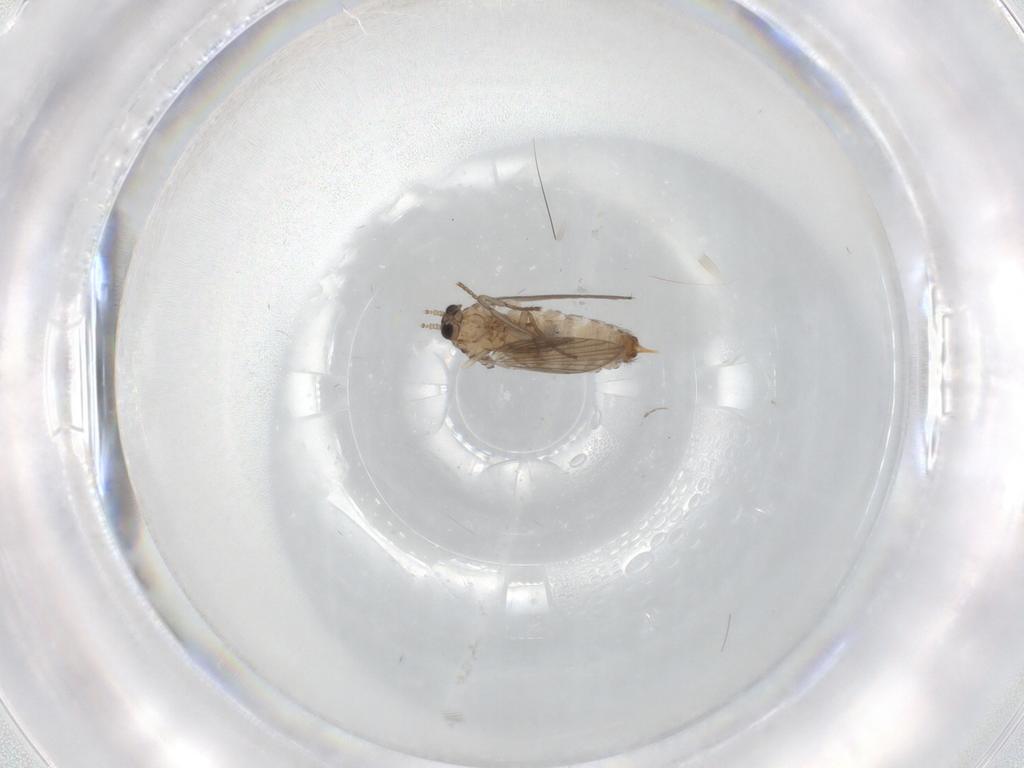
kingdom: Animalia
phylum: Arthropoda
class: Insecta
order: Diptera
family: Psychodidae
